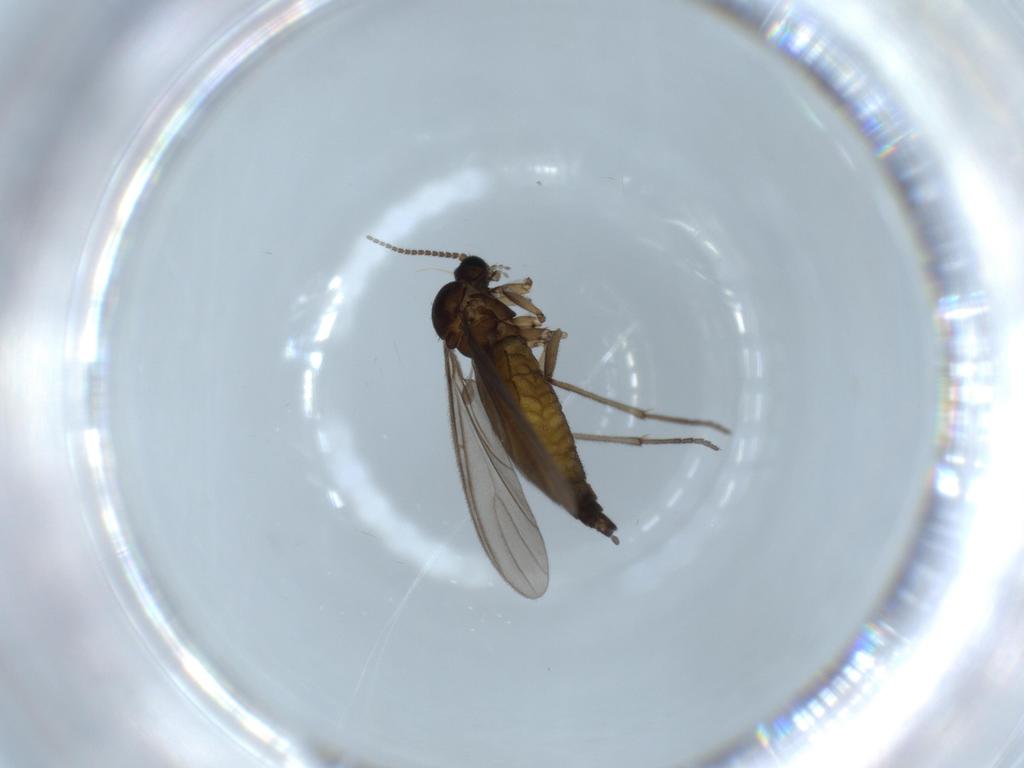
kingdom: Animalia
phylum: Arthropoda
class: Insecta
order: Diptera
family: Sciaridae
